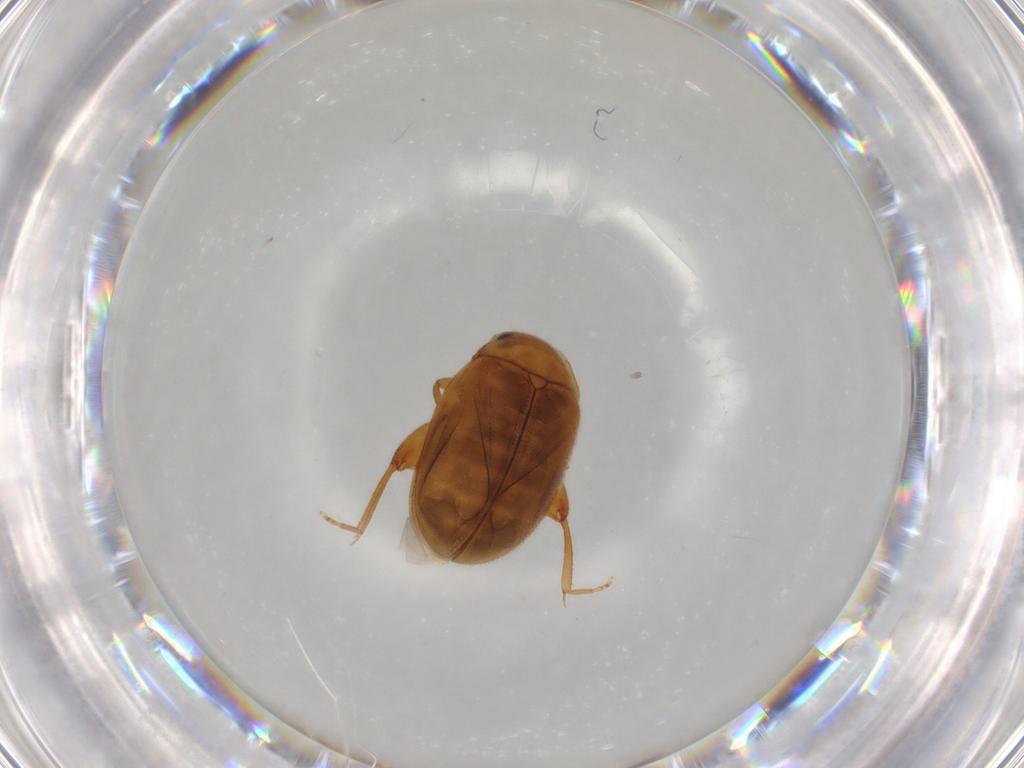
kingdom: Animalia
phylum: Arthropoda
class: Insecta
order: Coleoptera
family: Scirtidae
